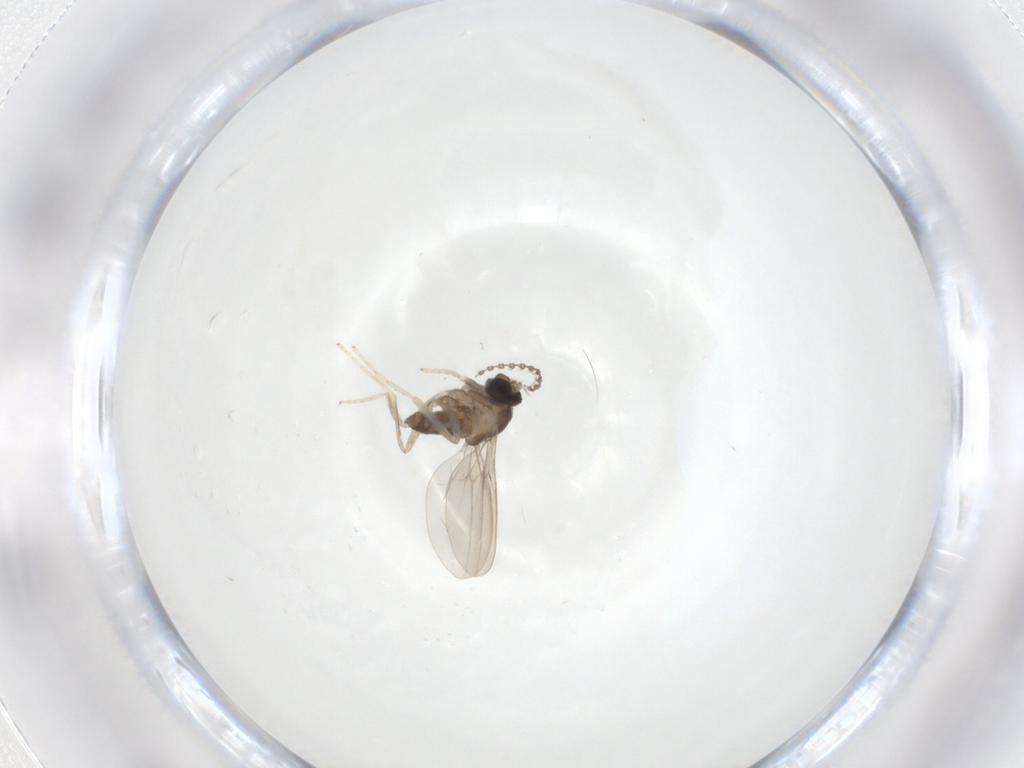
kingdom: Animalia
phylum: Arthropoda
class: Insecta
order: Diptera
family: Cecidomyiidae
